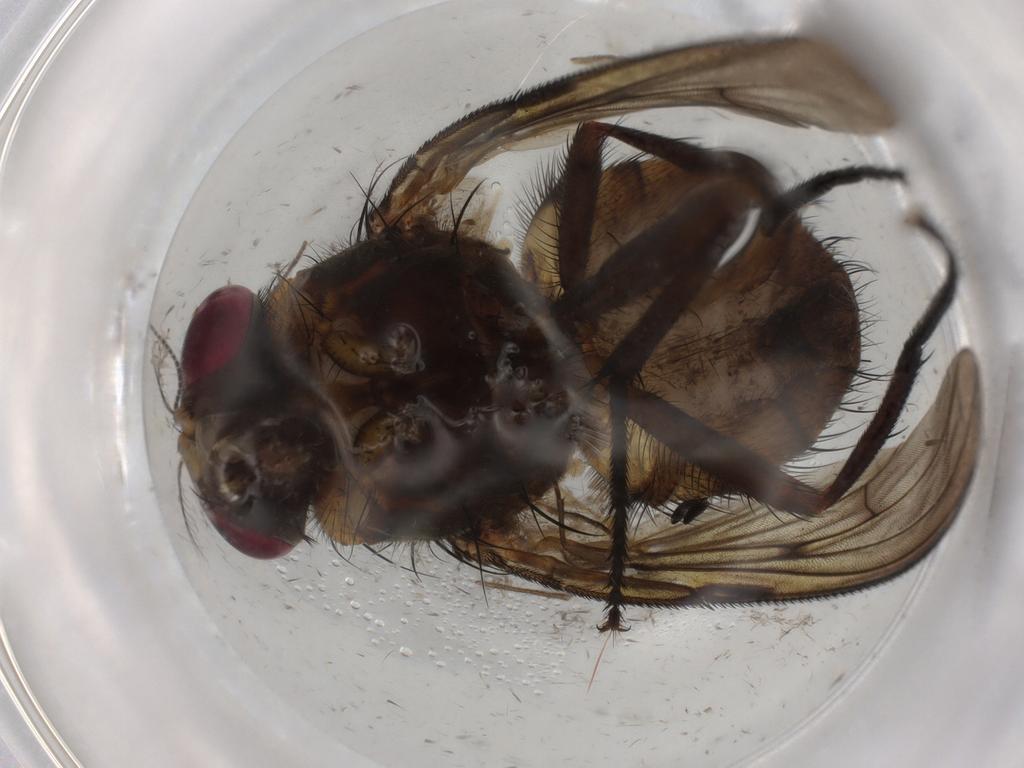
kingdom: Animalia
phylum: Arthropoda
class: Insecta
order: Diptera
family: Muscidae
